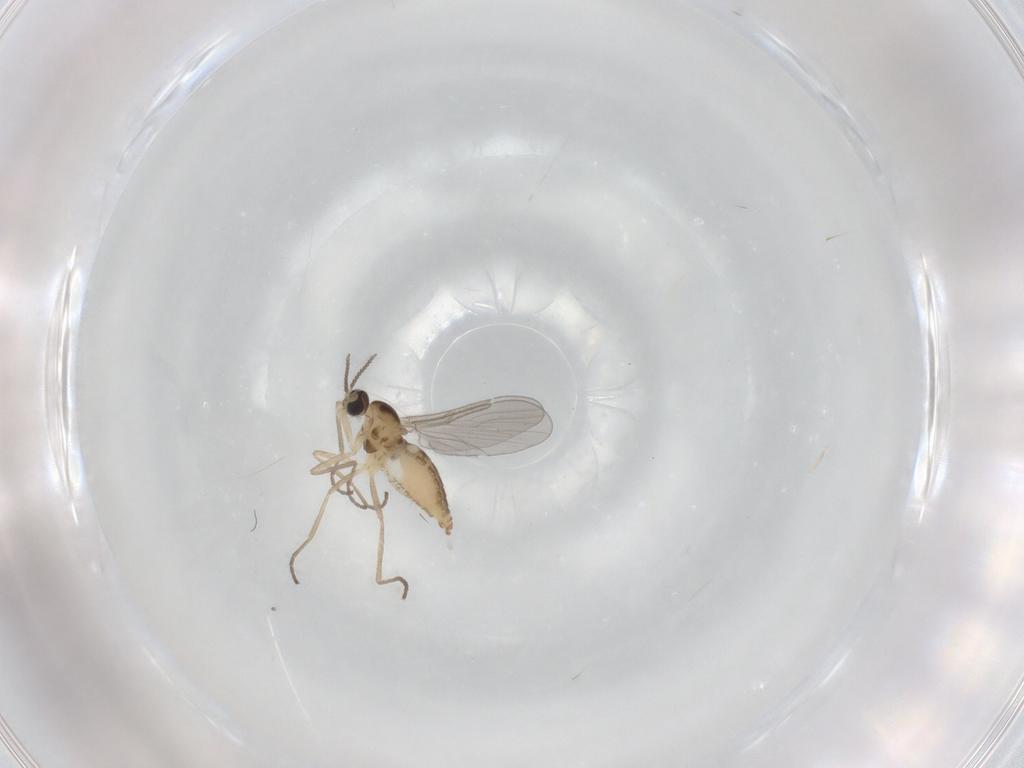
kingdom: Animalia
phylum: Arthropoda
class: Insecta
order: Diptera
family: Cecidomyiidae
